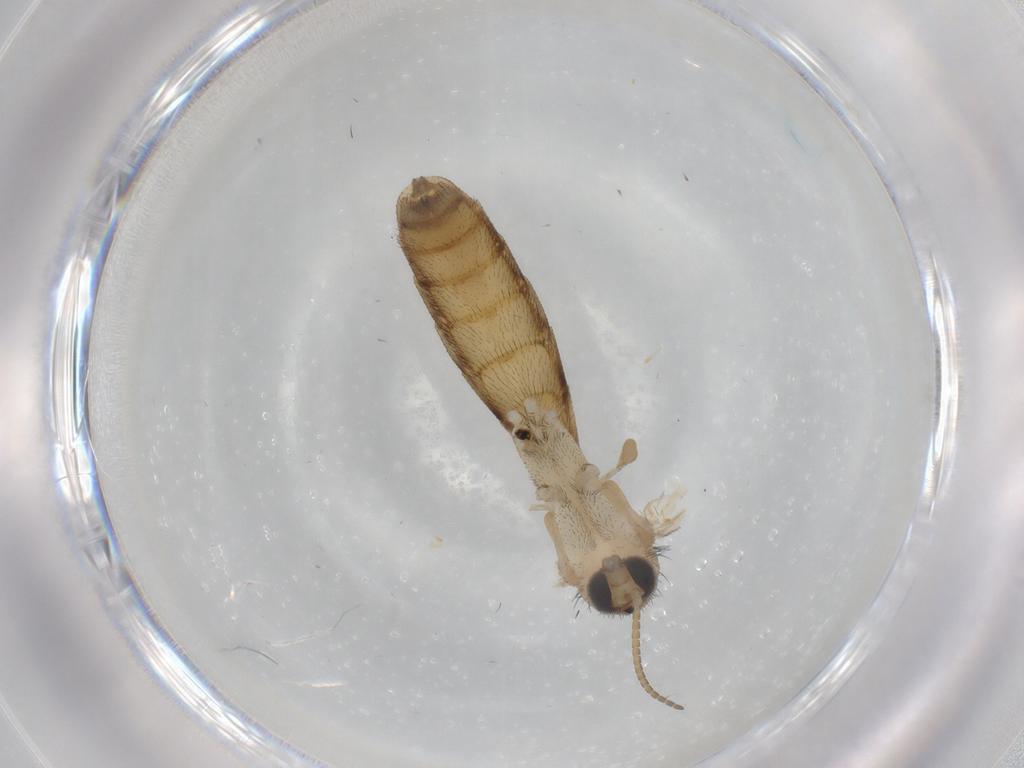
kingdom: Animalia
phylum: Arthropoda
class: Insecta
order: Diptera
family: Keroplatidae
